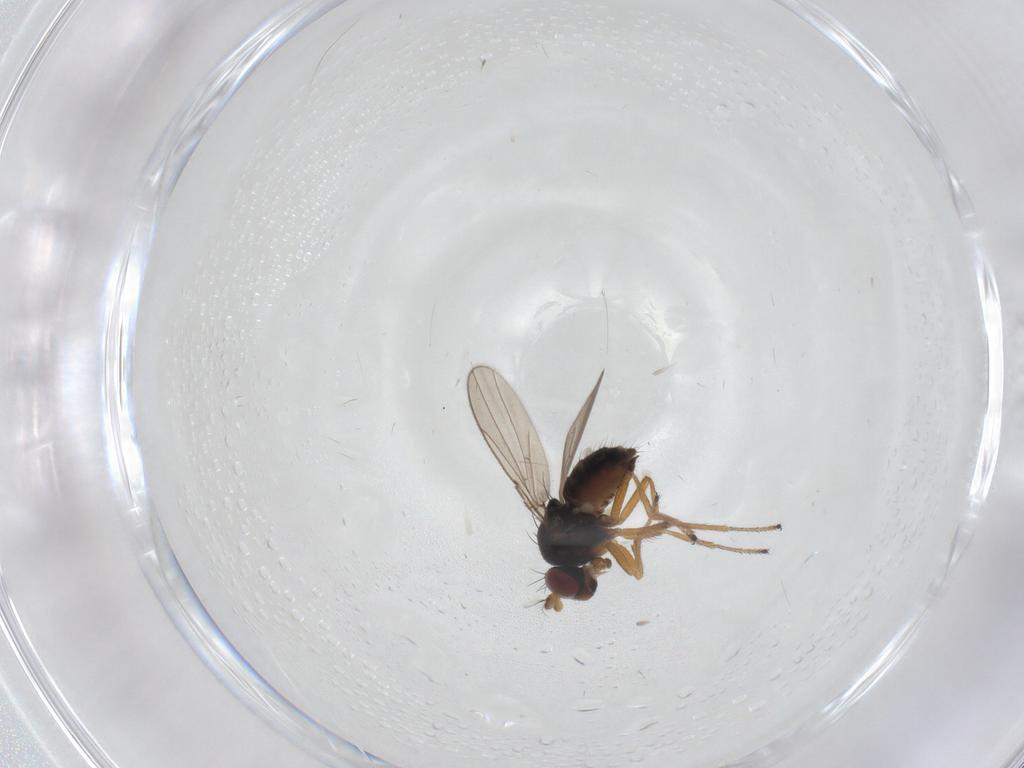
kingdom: Animalia
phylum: Arthropoda
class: Insecta
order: Diptera
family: Ephydridae
